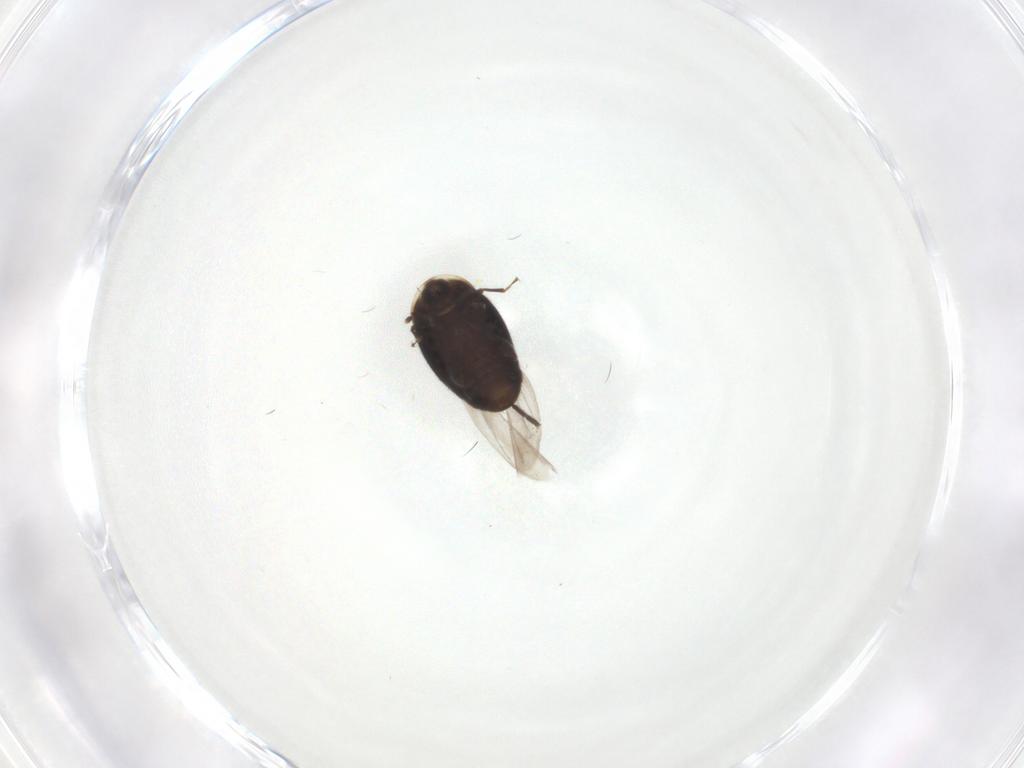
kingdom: Animalia
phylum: Arthropoda
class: Insecta
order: Coleoptera
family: Corylophidae
